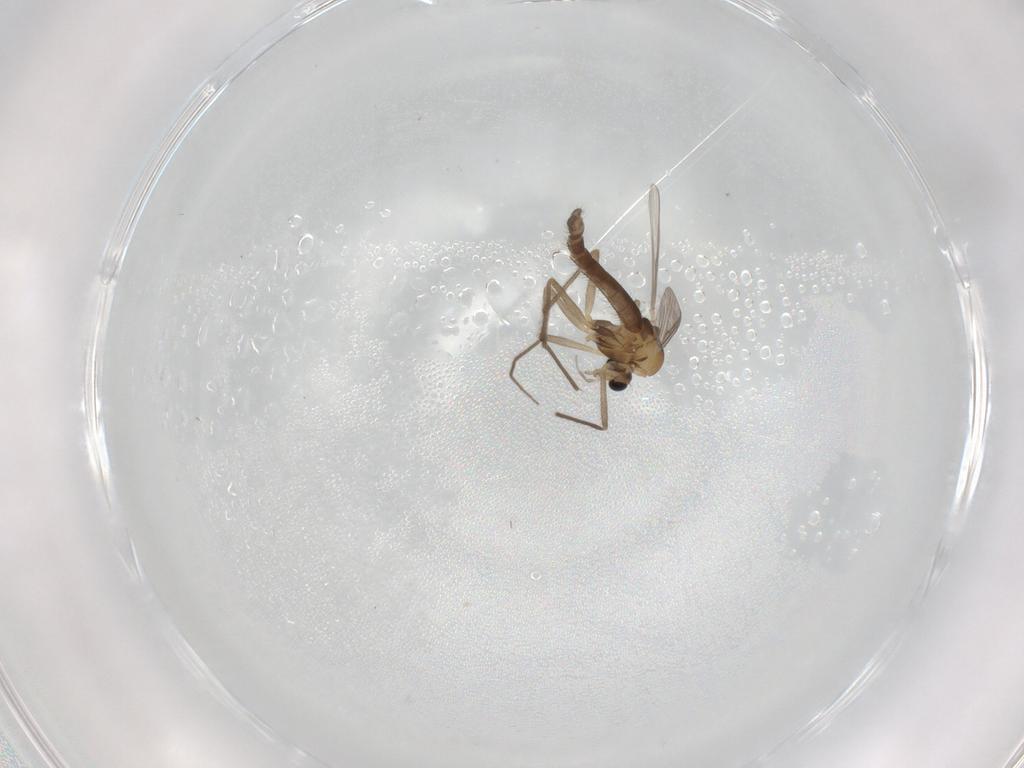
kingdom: Animalia
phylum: Arthropoda
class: Insecta
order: Diptera
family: Chironomidae
